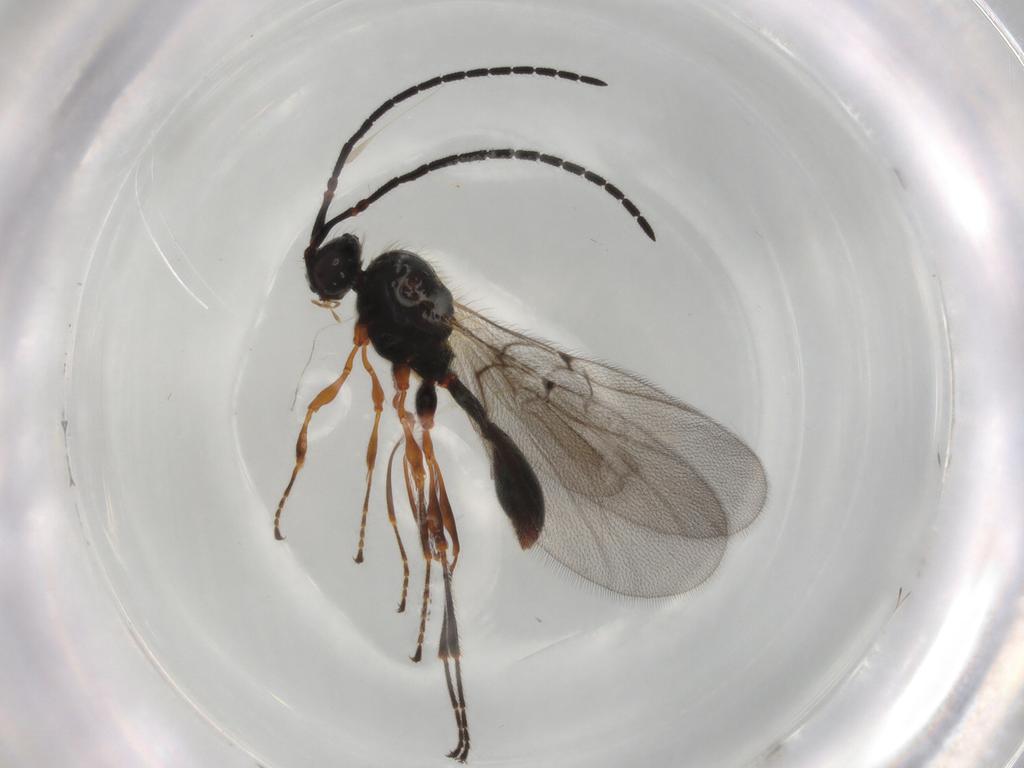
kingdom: Animalia
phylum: Arthropoda
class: Insecta
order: Hymenoptera
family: Diapriidae
